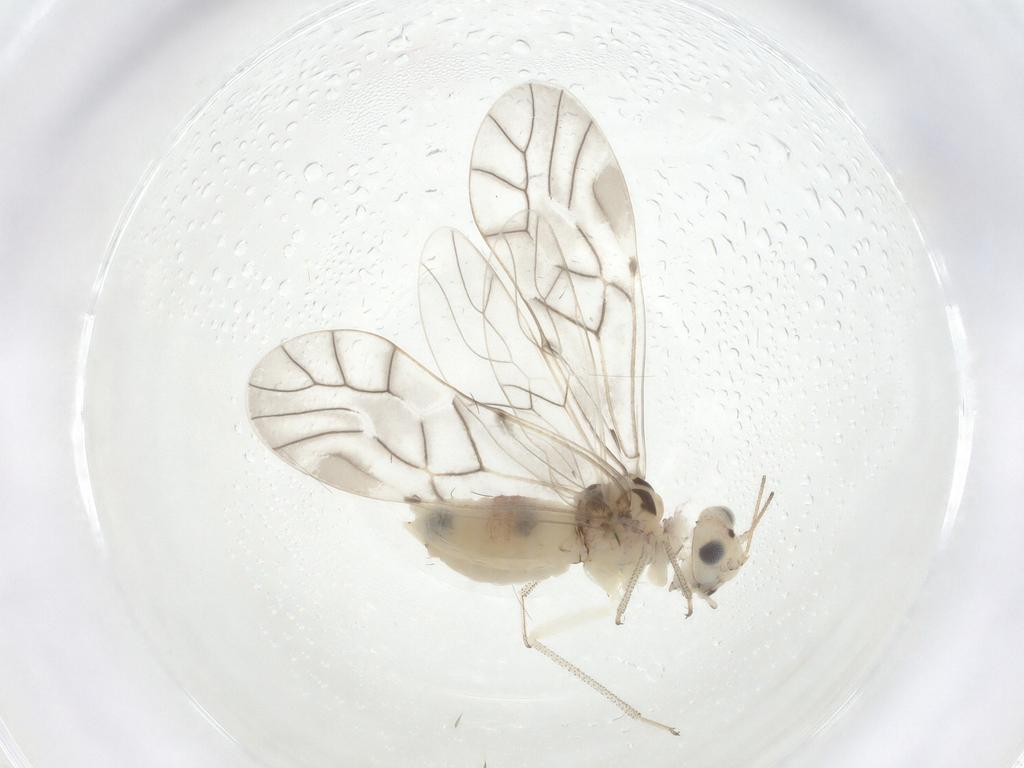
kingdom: Animalia
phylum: Arthropoda
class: Insecta
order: Psocodea
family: Psocidae
